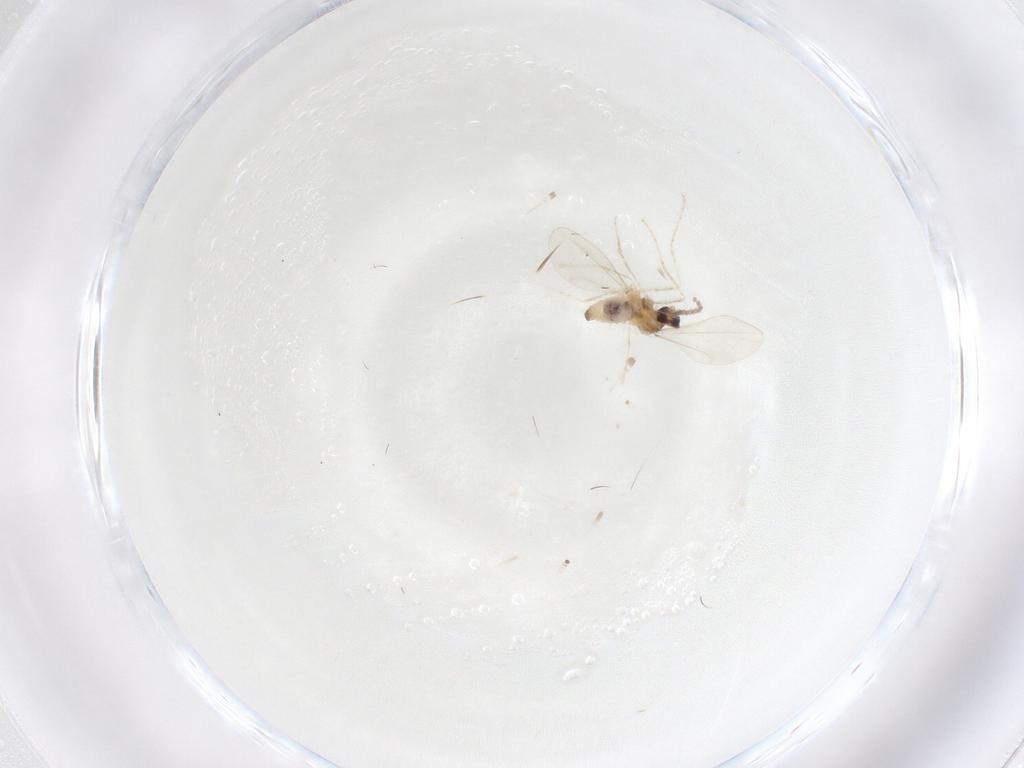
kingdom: Animalia
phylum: Arthropoda
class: Insecta
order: Diptera
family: Cecidomyiidae
